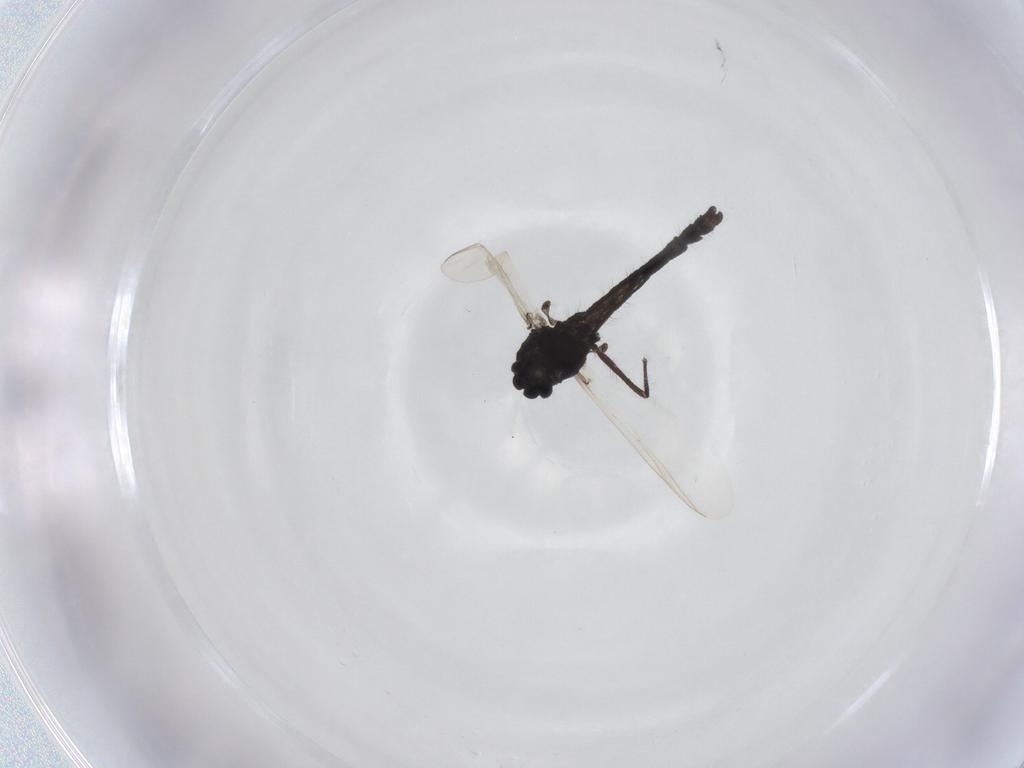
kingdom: Animalia
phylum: Arthropoda
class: Insecta
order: Diptera
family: Chironomidae
